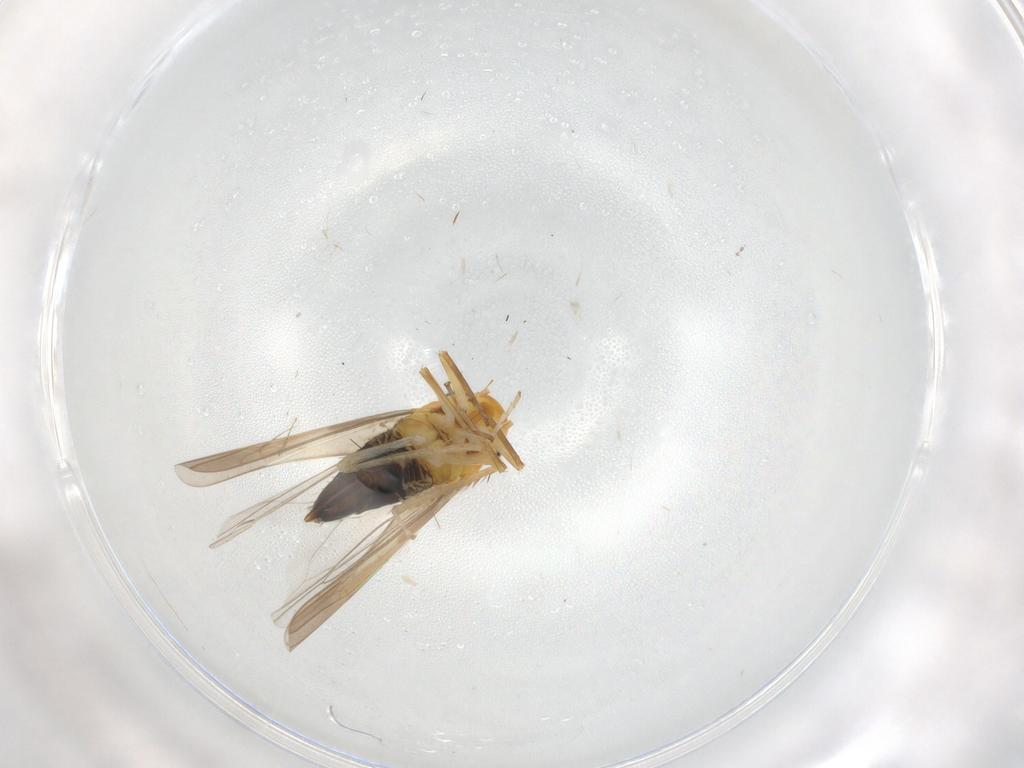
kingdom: Animalia
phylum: Arthropoda
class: Insecta
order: Hemiptera
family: Cicadellidae
